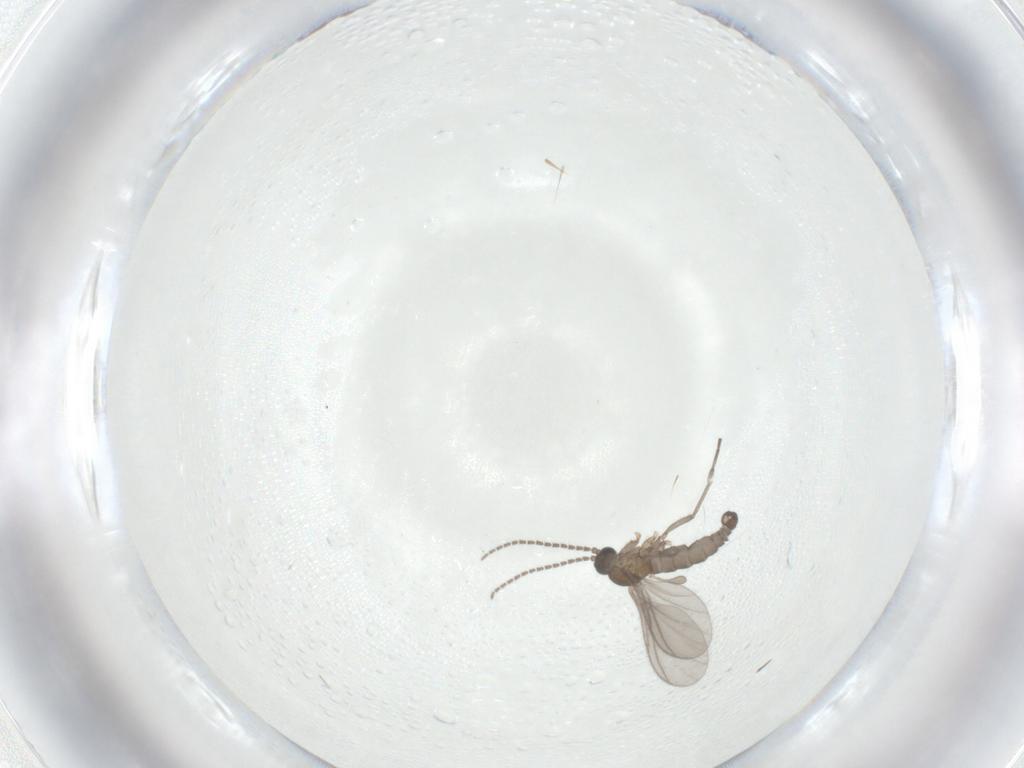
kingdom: Animalia
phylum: Arthropoda
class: Insecta
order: Diptera
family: Sciaridae
